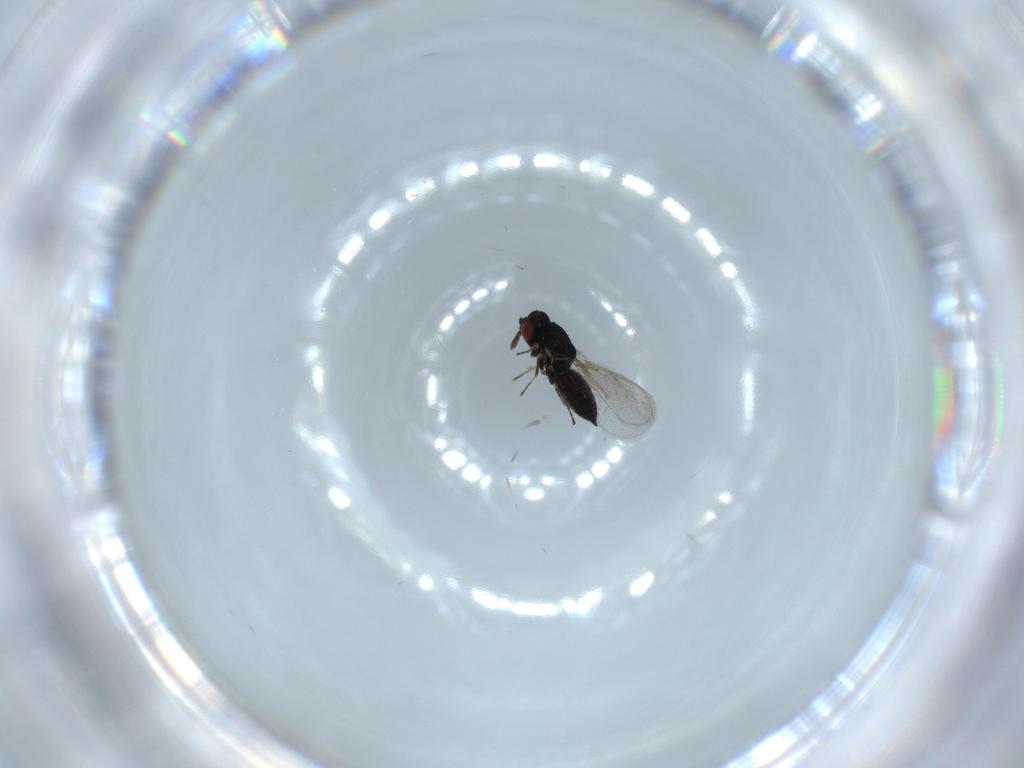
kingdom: Animalia
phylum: Arthropoda
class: Insecta
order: Hymenoptera
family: Eulophidae
